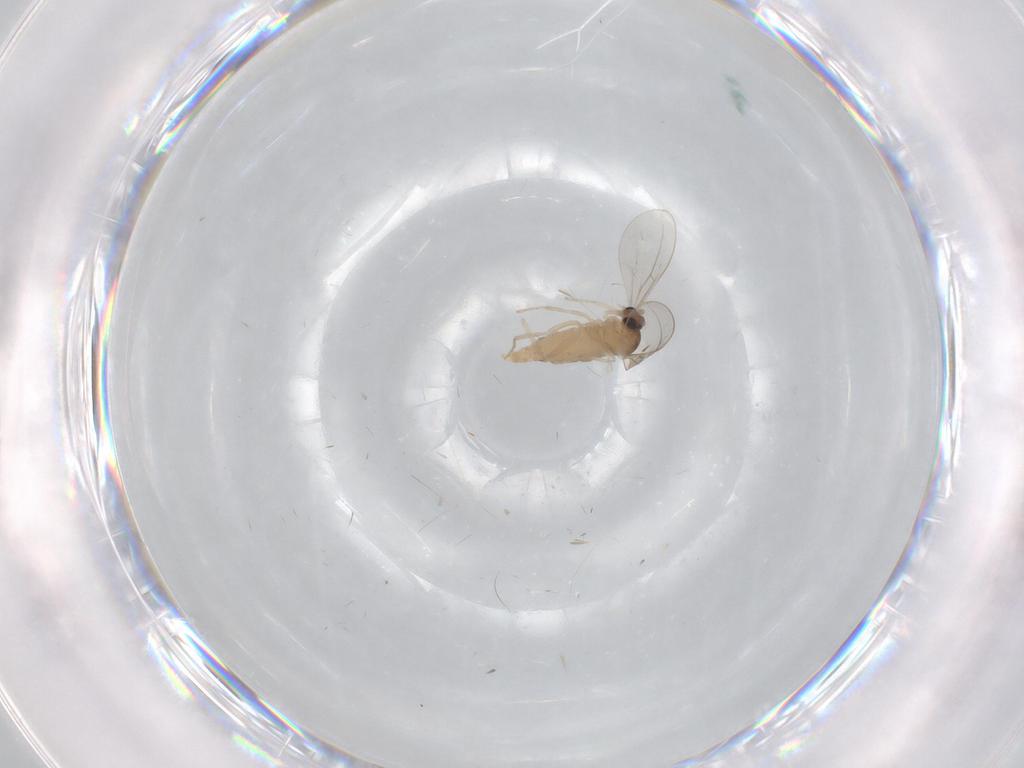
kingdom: Animalia
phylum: Arthropoda
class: Insecta
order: Diptera
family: Cecidomyiidae
